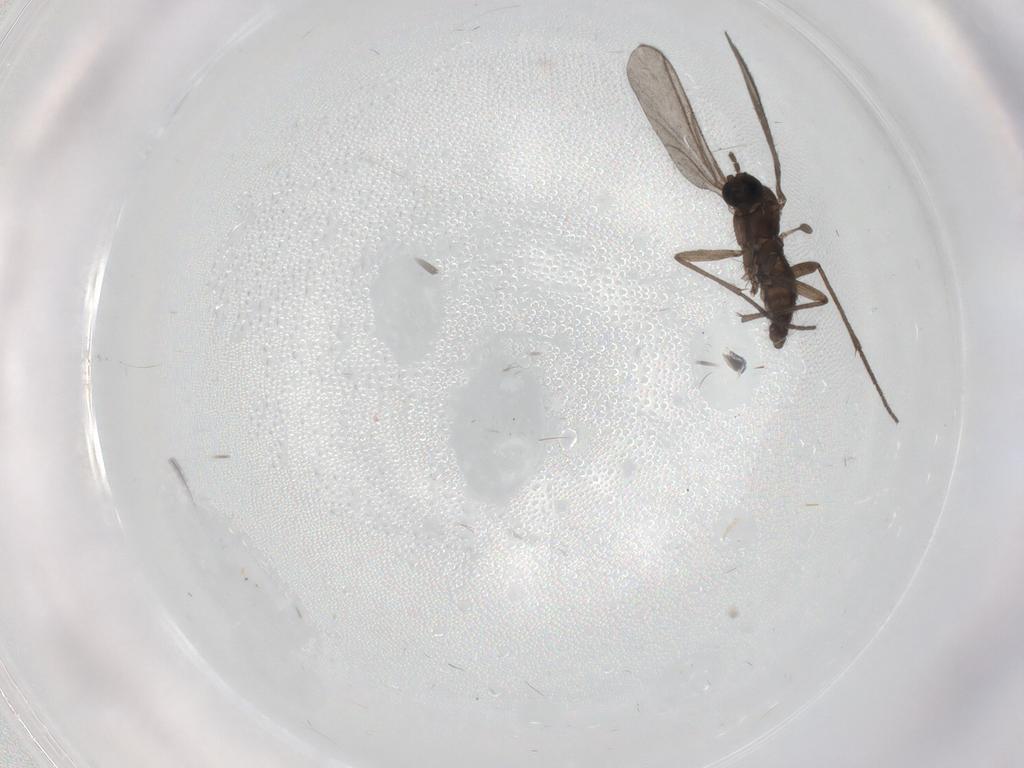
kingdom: Animalia
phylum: Arthropoda
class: Insecta
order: Diptera
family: Sciaridae
